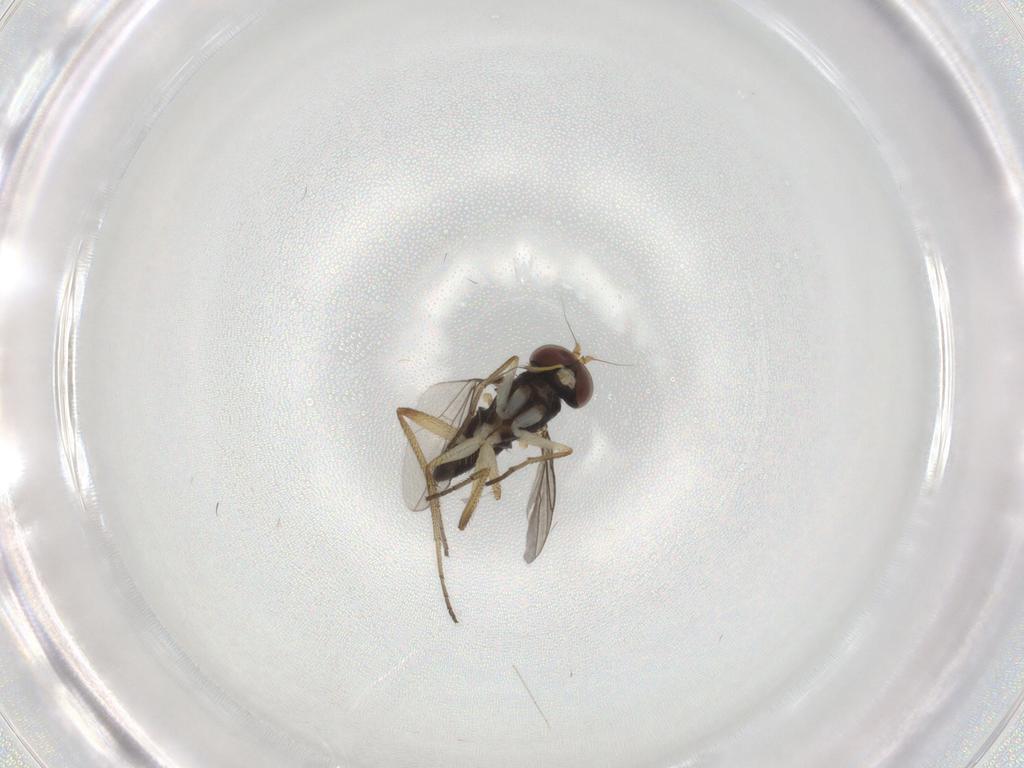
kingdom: Animalia
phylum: Arthropoda
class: Insecta
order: Diptera
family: Dolichopodidae
